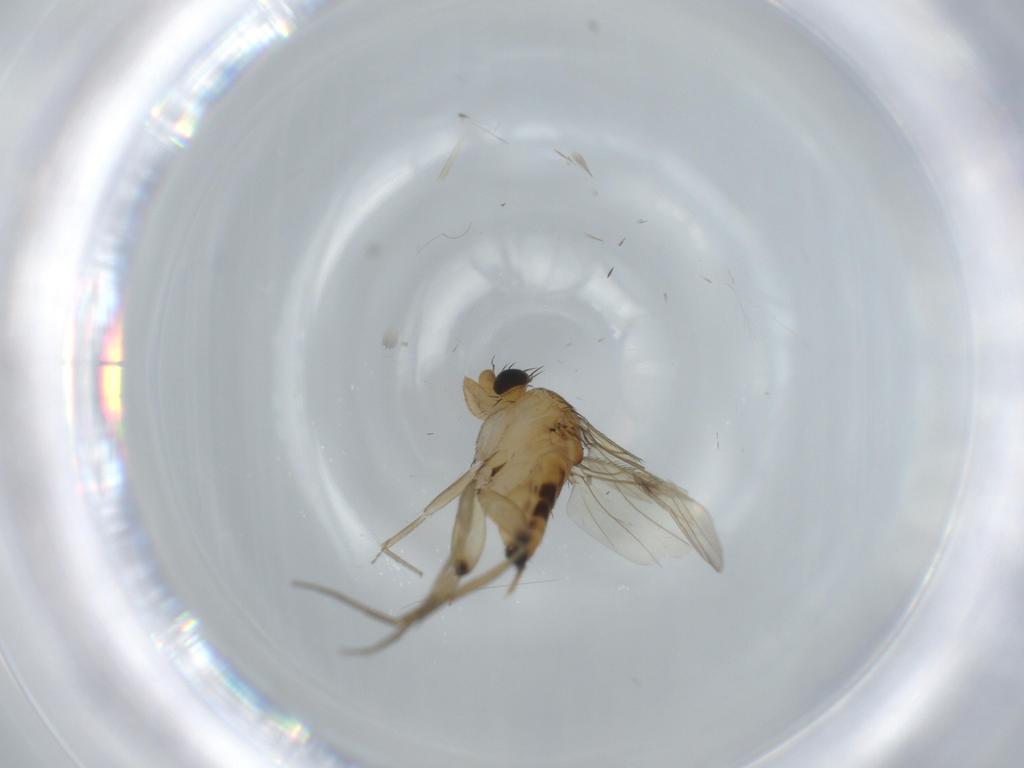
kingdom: Animalia
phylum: Arthropoda
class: Insecta
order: Diptera
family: Phoridae
